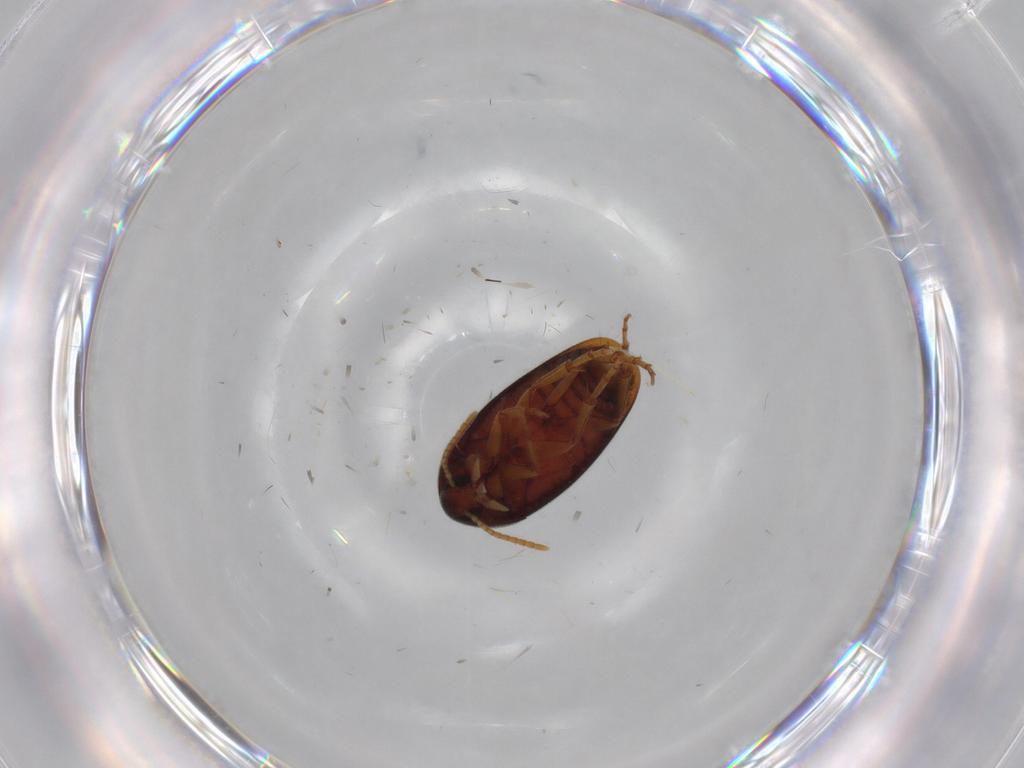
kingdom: Animalia
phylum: Arthropoda
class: Insecta
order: Coleoptera
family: Scraptiidae
